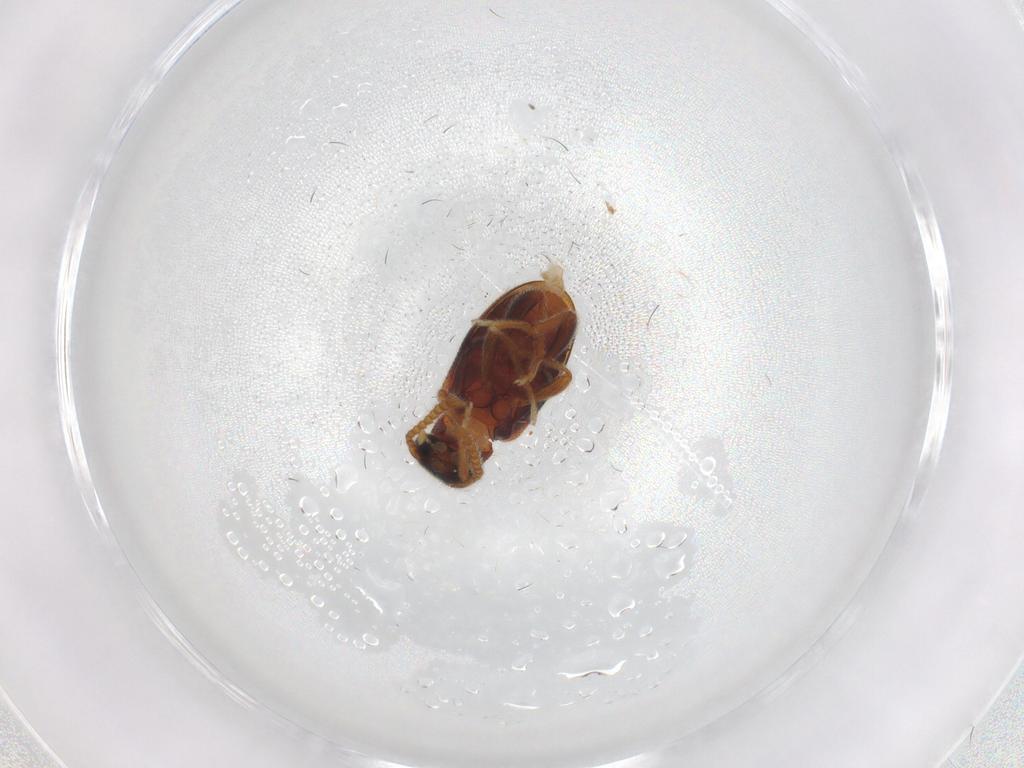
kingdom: Animalia
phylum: Arthropoda
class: Insecta
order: Coleoptera
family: Aderidae
